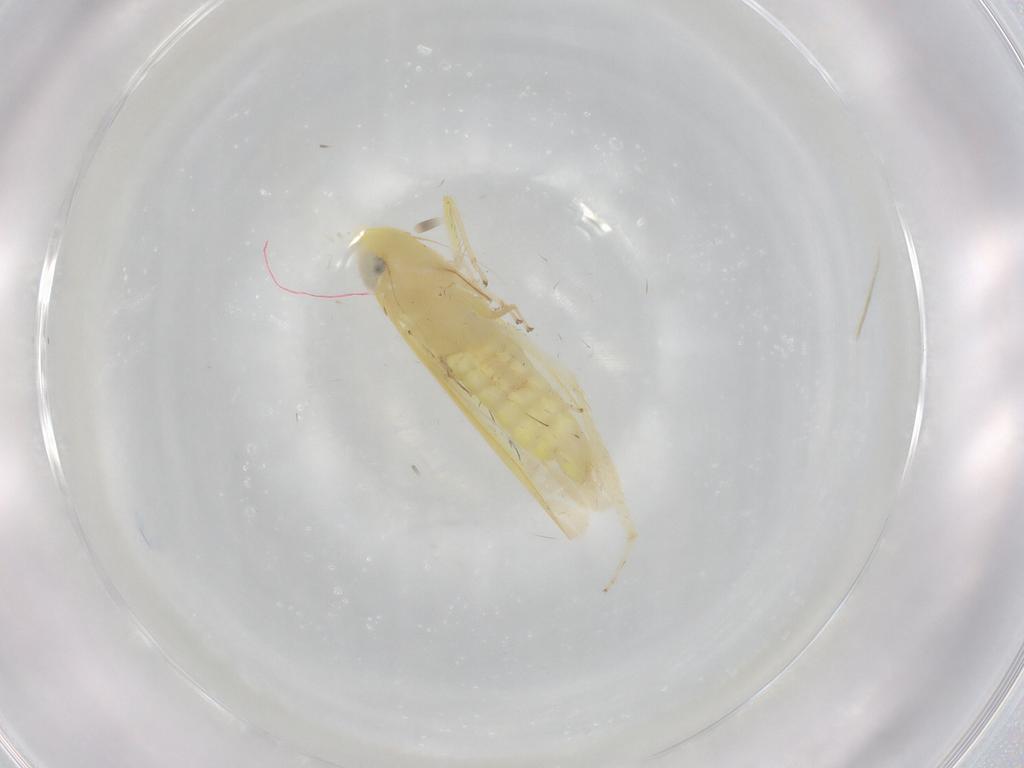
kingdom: Animalia
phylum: Arthropoda
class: Insecta
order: Hemiptera
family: Cicadellidae
